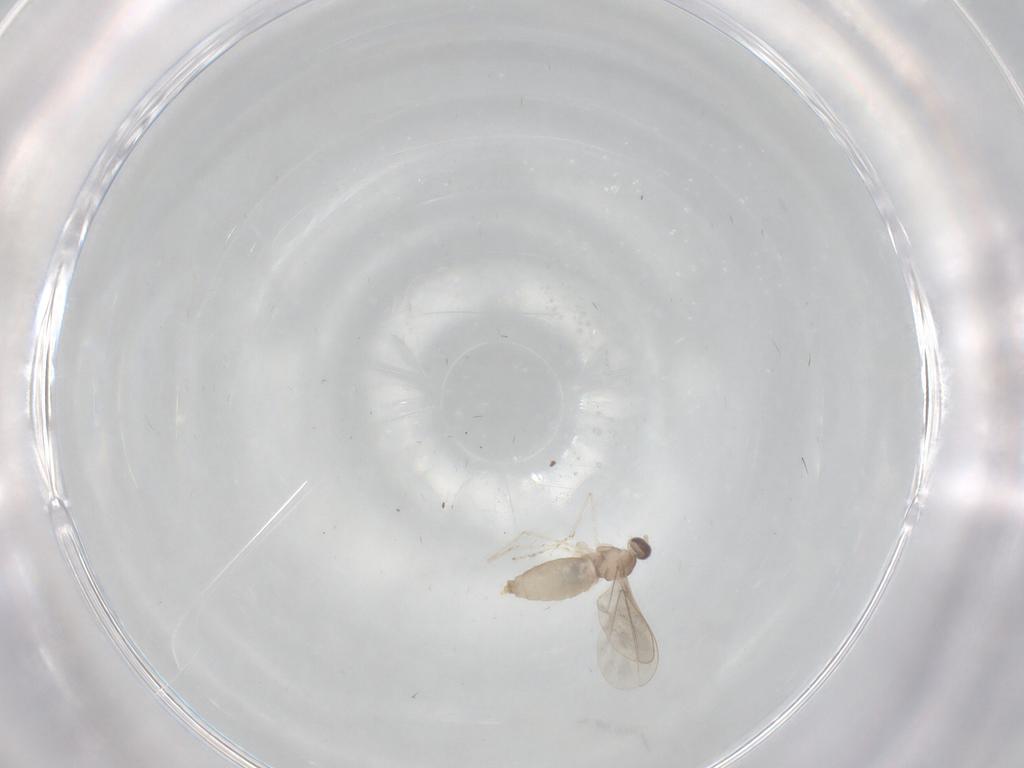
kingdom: Animalia
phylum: Arthropoda
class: Insecta
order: Diptera
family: Cecidomyiidae
